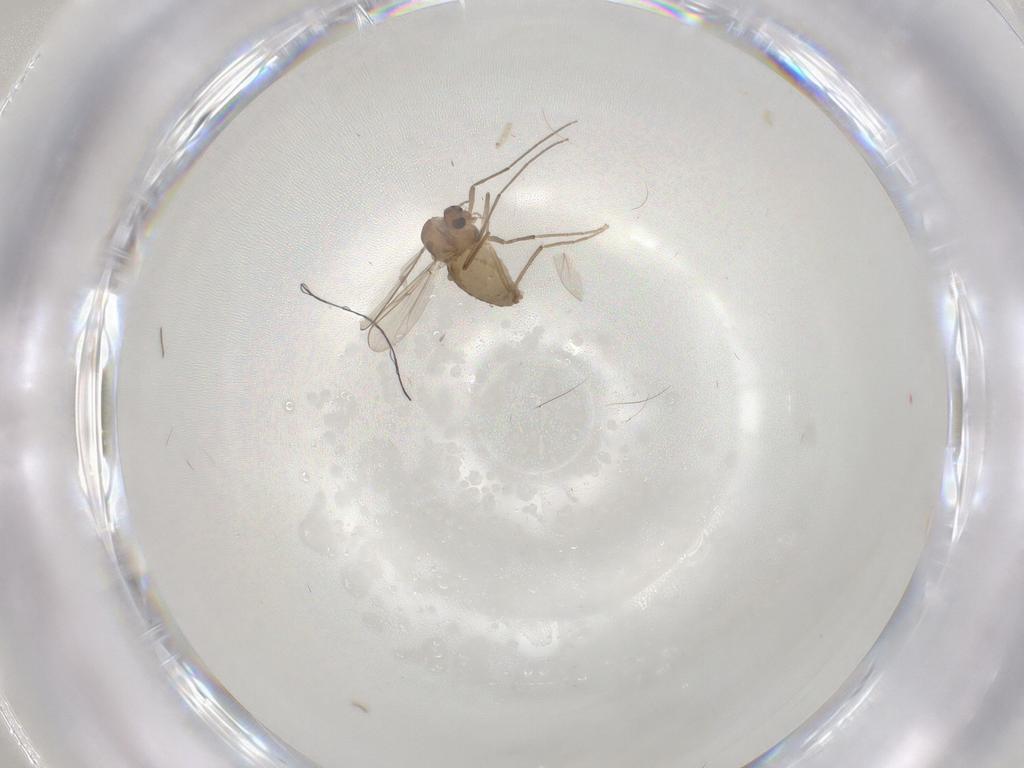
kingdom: Animalia
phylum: Arthropoda
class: Insecta
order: Diptera
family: Chironomidae
